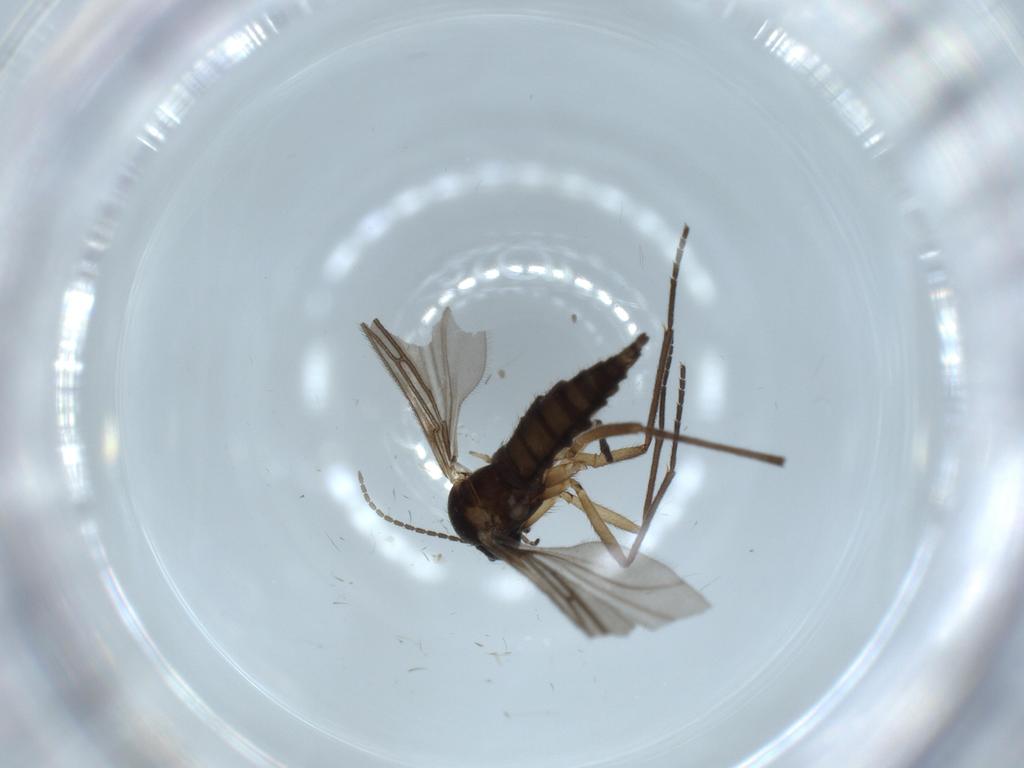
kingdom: Animalia
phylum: Arthropoda
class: Insecta
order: Diptera
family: Sciaridae
